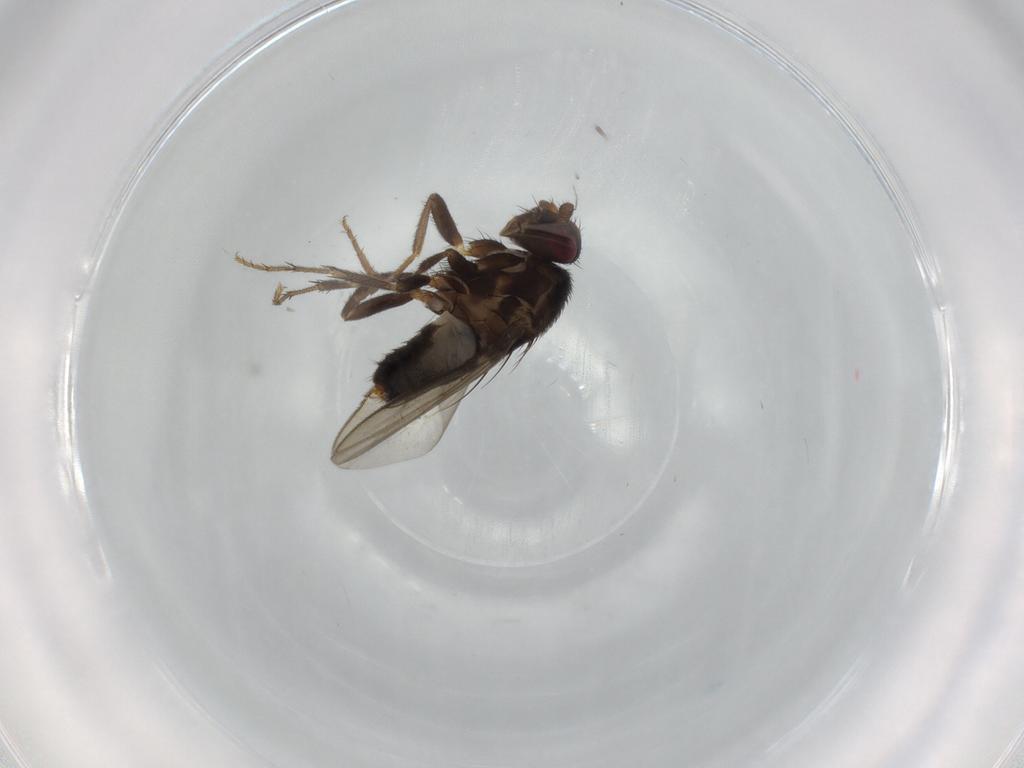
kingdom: Animalia
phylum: Arthropoda
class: Insecta
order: Diptera
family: Sphaeroceridae
